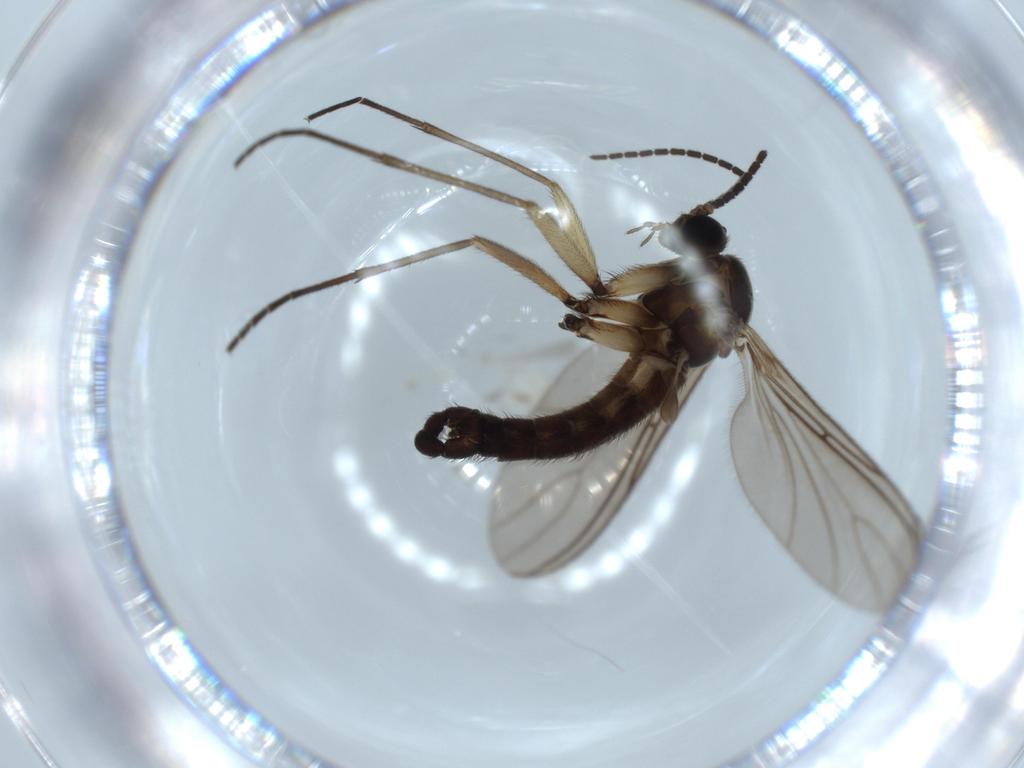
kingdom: Animalia
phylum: Arthropoda
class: Insecta
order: Diptera
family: Sciaridae
